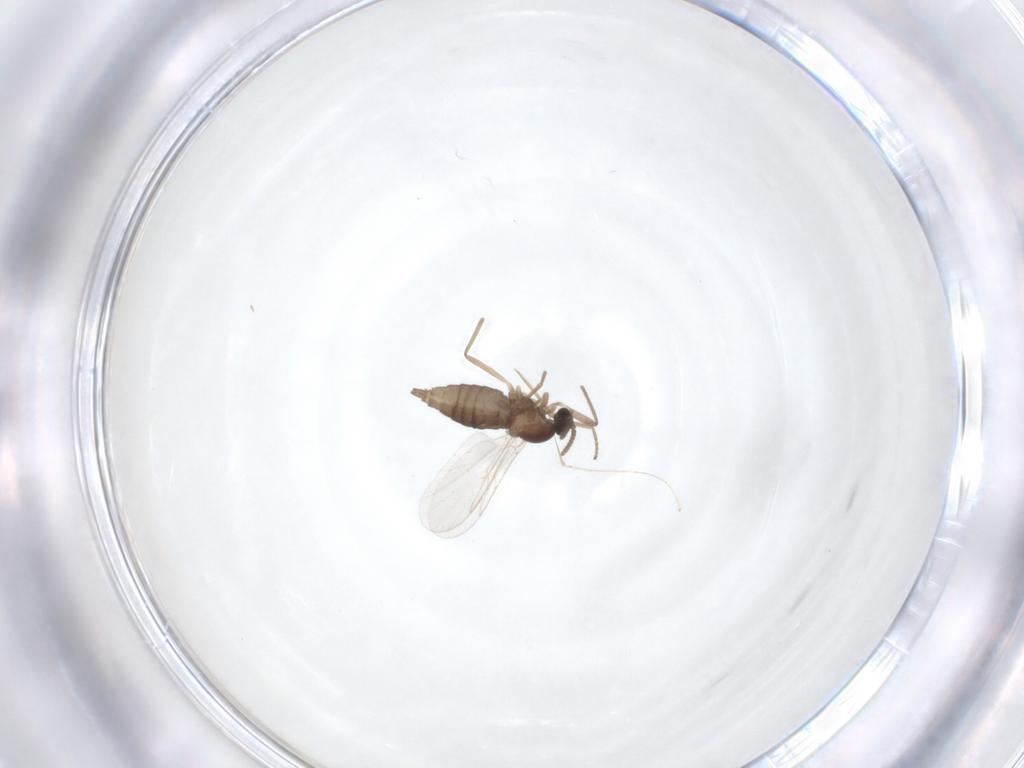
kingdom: Animalia
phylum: Arthropoda
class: Insecta
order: Diptera
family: Cecidomyiidae
